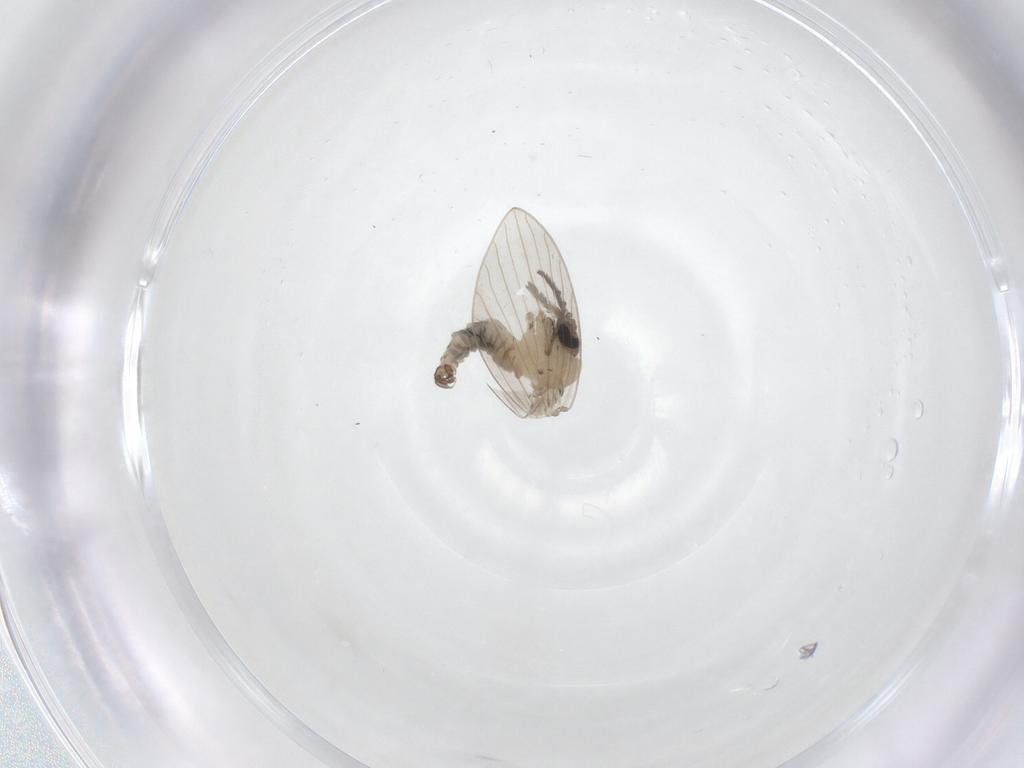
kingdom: Animalia
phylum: Arthropoda
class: Insecta
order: Diptera
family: Psychodidae
